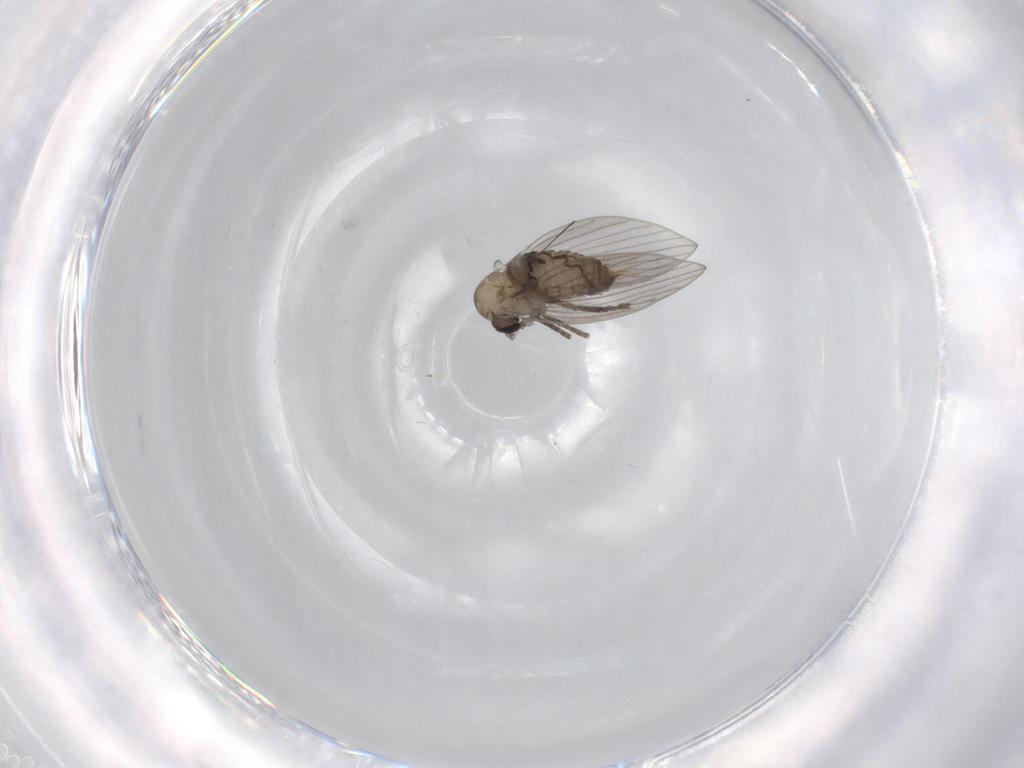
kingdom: Animalia
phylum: Arthropoda
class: Insecta
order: Diptera
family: Psychodidae
